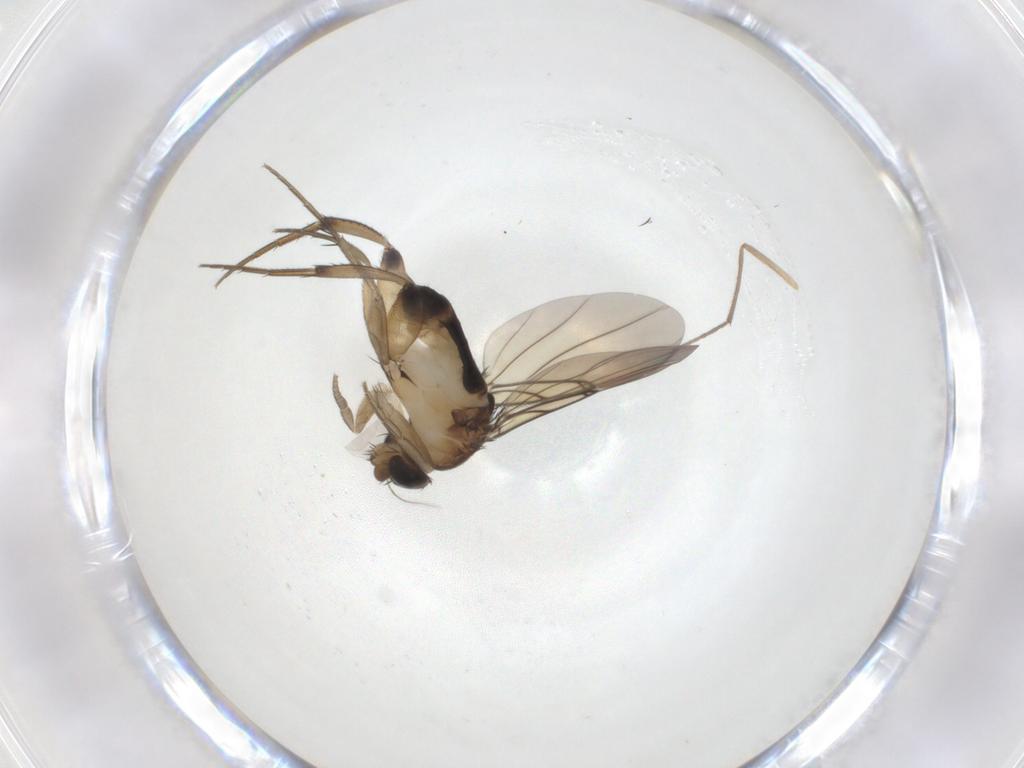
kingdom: Animalia
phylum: Arthropoda
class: Insecta
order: Diptera
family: Phoridae
